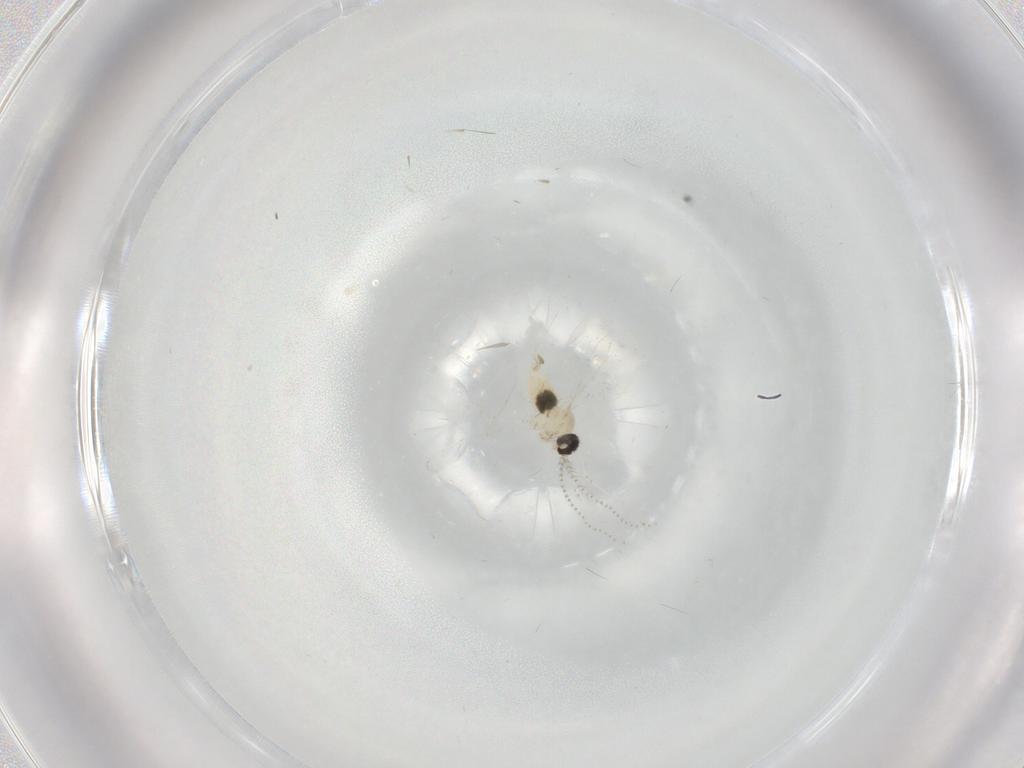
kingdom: Animalia
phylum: Arthropoda
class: Insecta
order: Diptera
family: Cecidomyiidae
